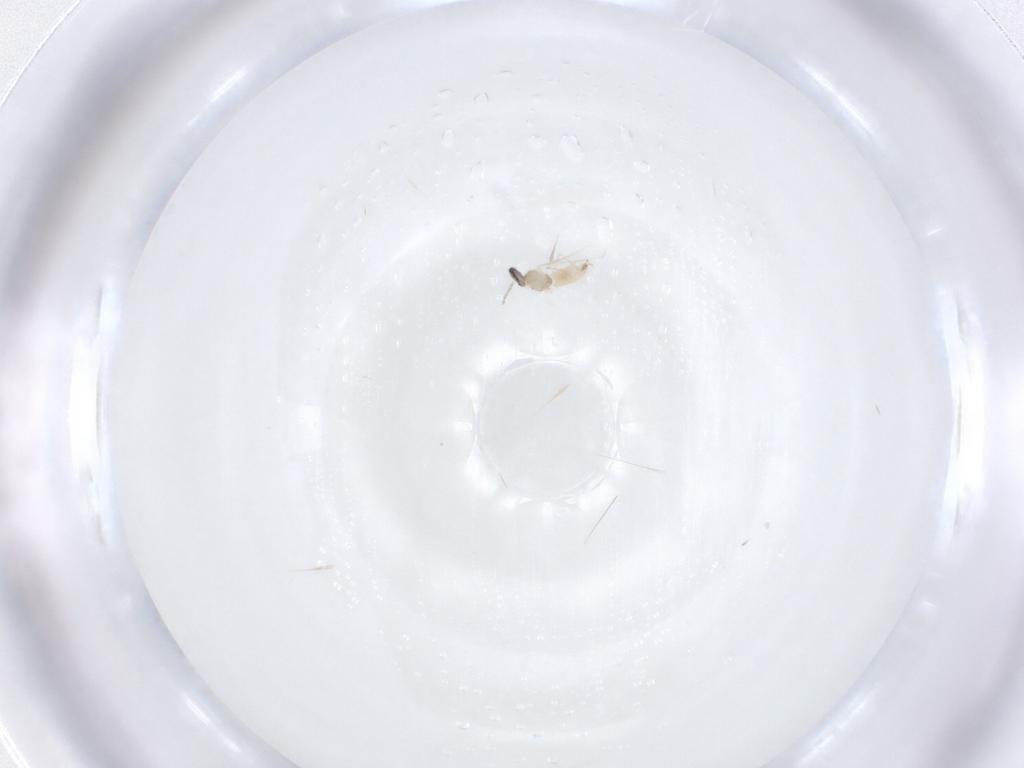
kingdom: Animalia
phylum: Arthropoda
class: Insecta
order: Diptera
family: Cecidomyiidae
